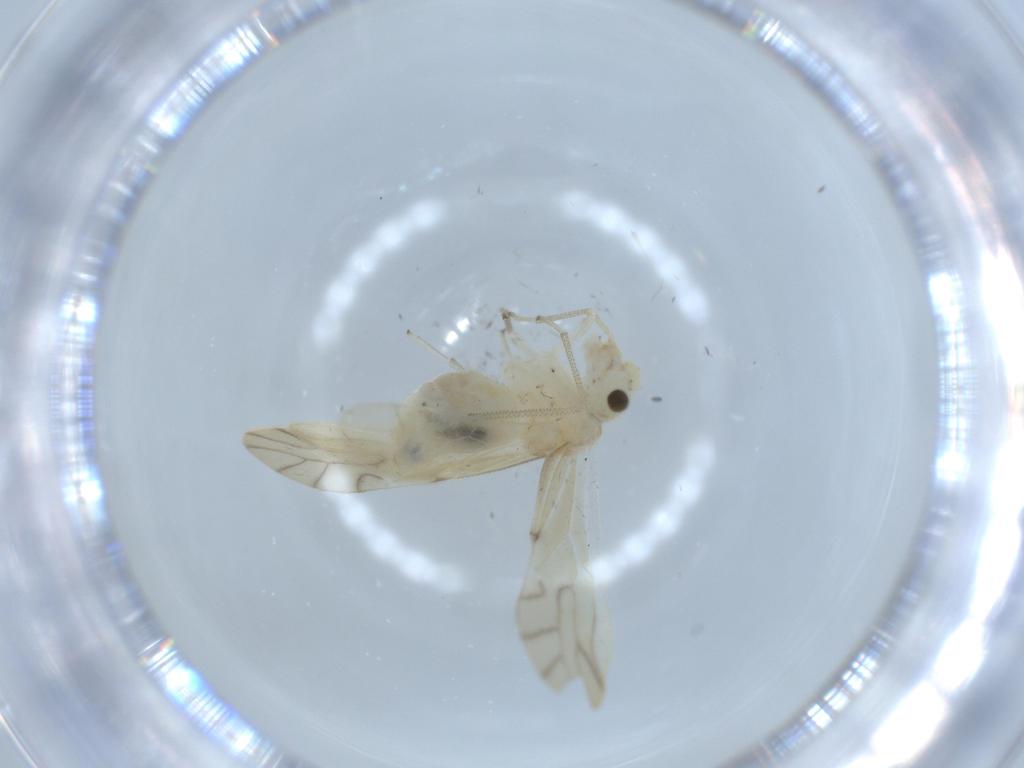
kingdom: Animalia
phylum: Arthropoda
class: Insecta
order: Psocodea
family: Caeciliusidae
